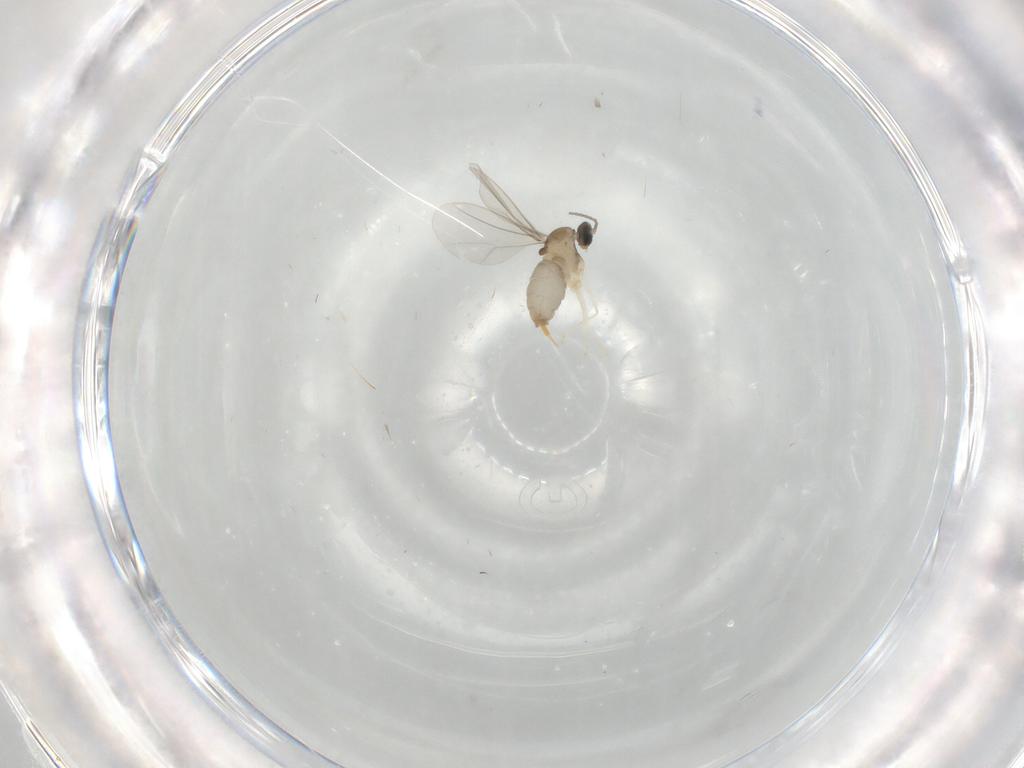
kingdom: Animalia
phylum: Arthropoda
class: Insecta
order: Diptera
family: Cecidomyiidae
